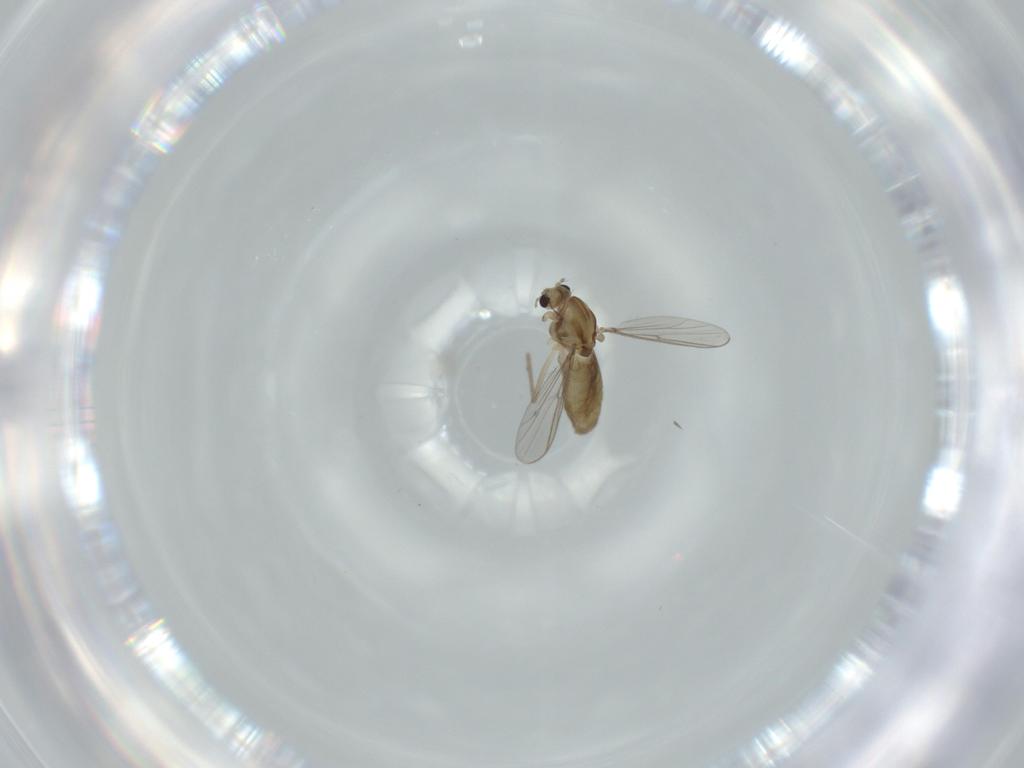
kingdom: Animalia
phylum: Arthropoda
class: Insecta
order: Diptera
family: Chironomidae
